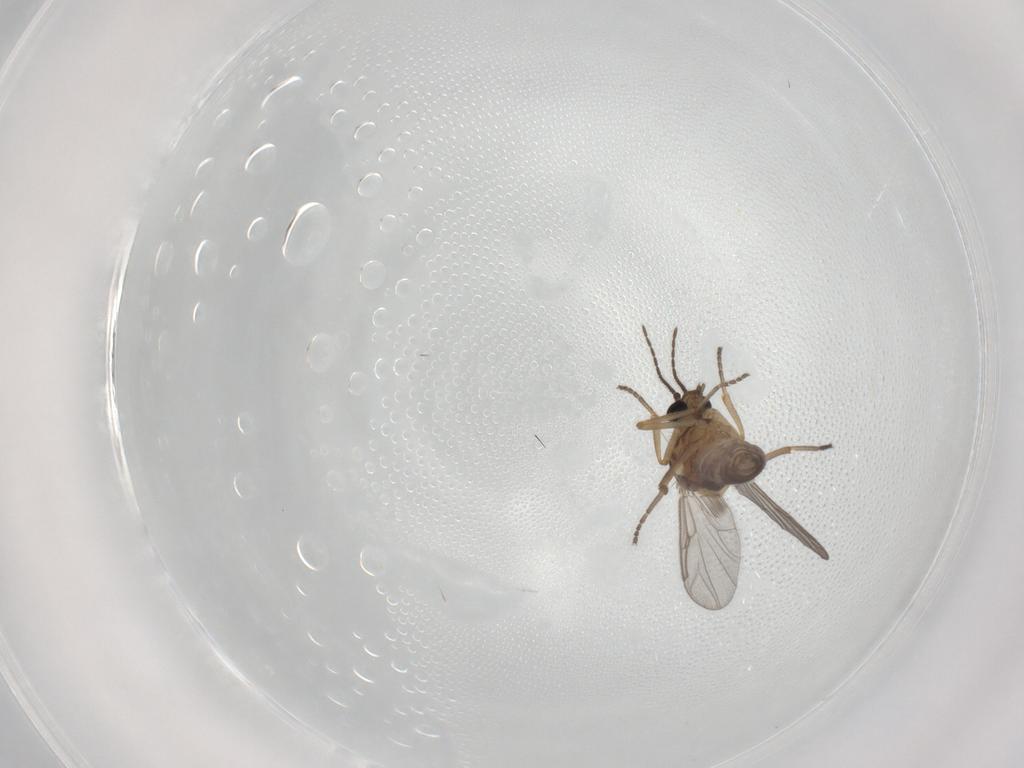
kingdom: Animalia
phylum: Arthropoda
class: Insecta
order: Diptera
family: Ceratopogonidae
